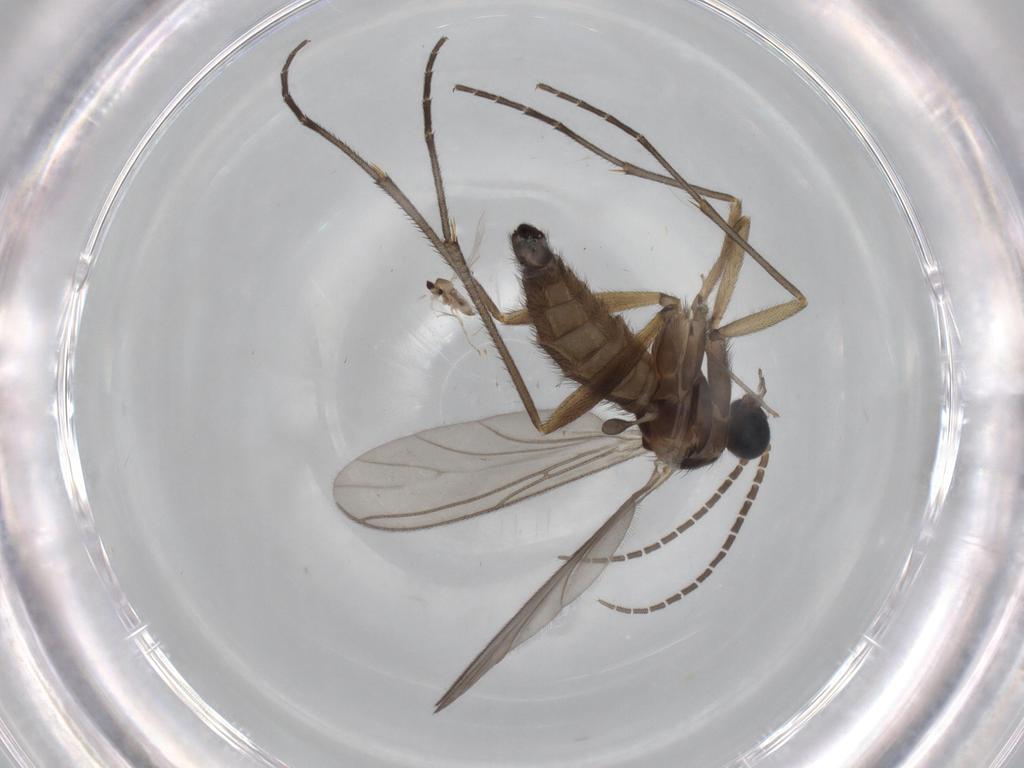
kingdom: Animalia
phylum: Arthropoda
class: Insecta
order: Diptera
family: Sciaridae
